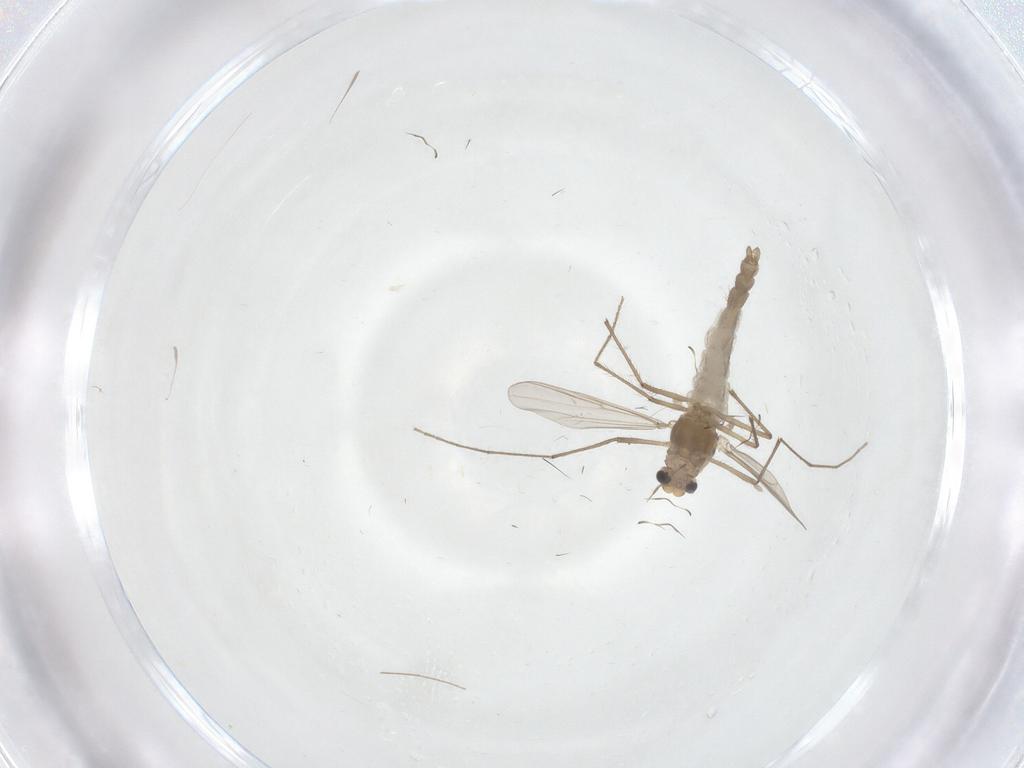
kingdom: Animalia
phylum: Arthropoda
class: Insecta
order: Diptera
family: Chironomidae
